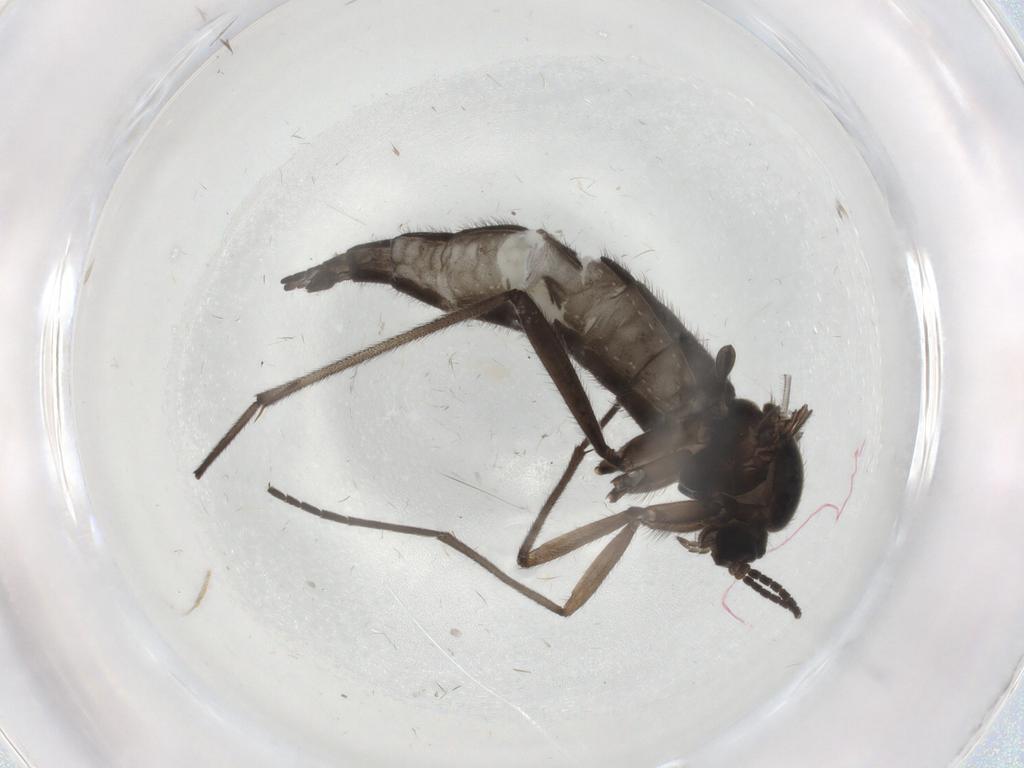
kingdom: Animalia
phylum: Arthropoda
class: Insecta
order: Diptera
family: Sciaridae
